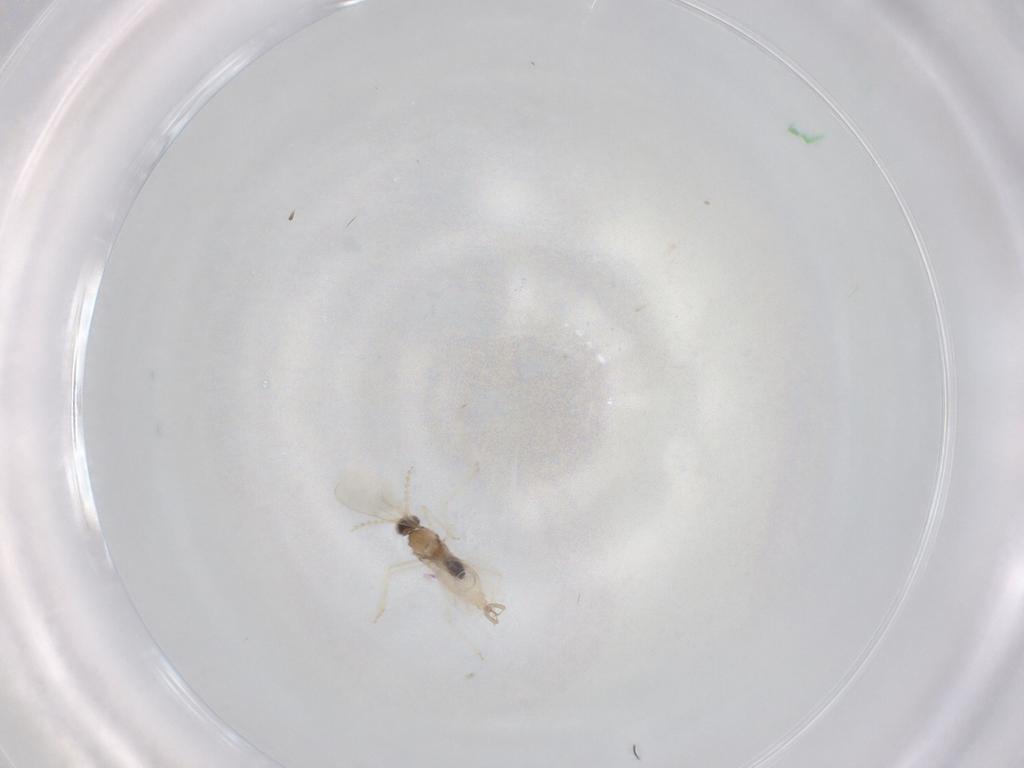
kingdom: Animalia
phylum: Arthropoda
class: Insecta
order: Diptera
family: Cecidomyiidae
